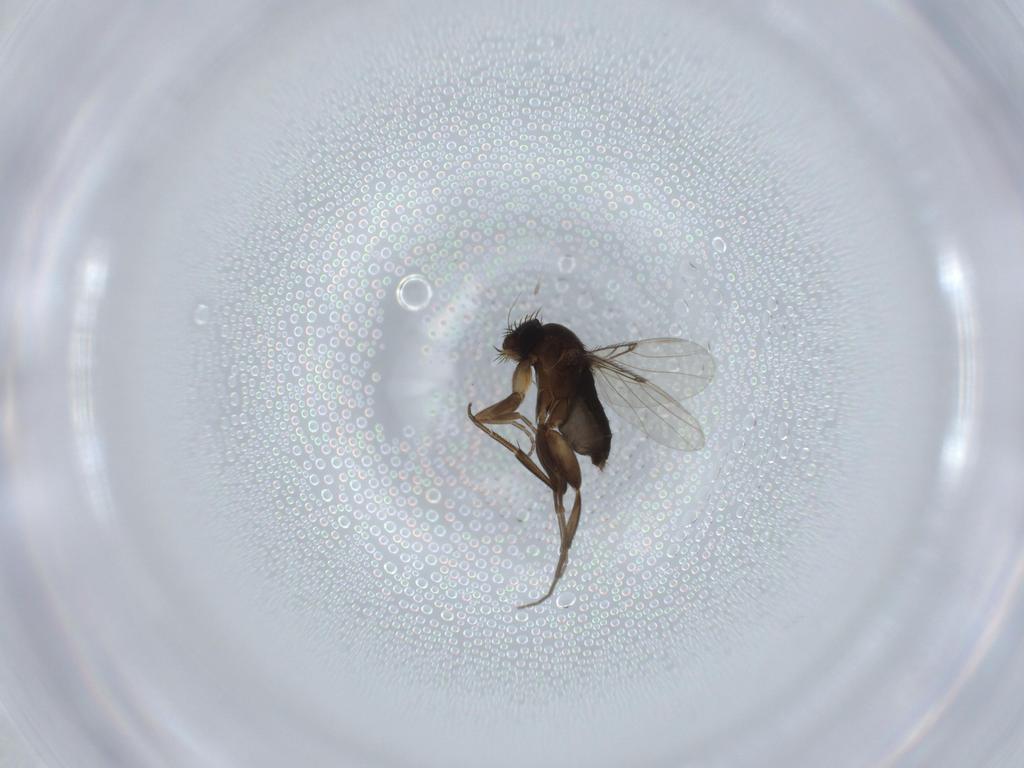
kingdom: Animalia
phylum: Arthropoda
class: Insecta
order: Diptera
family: Phoridae
